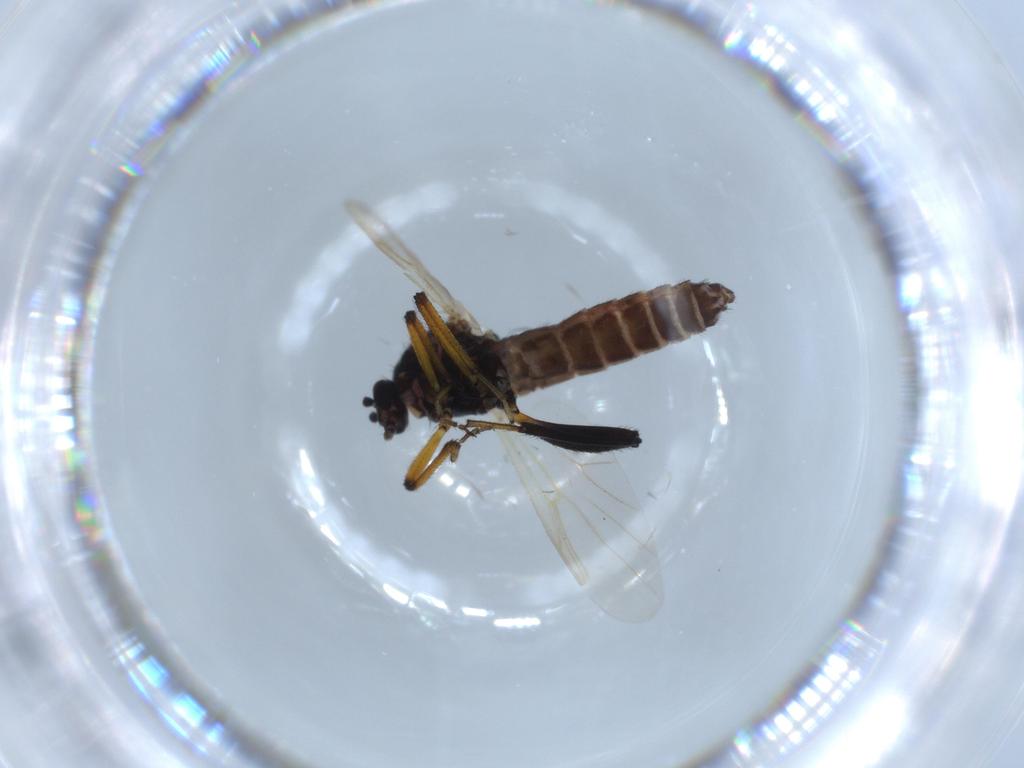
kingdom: Animalia
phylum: Arthropoda
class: Insecta
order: Diptera
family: Ceratopogonidae
